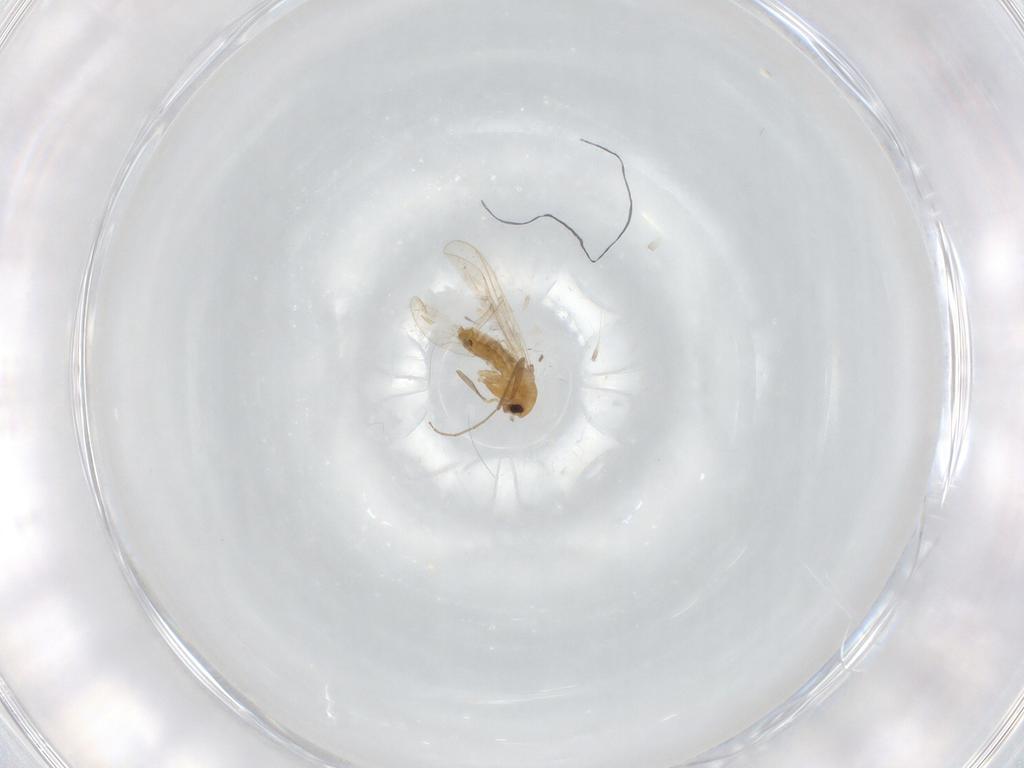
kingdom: Animalia
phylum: Arthropoda
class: Insecta
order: Diptera
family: Chironomidae
